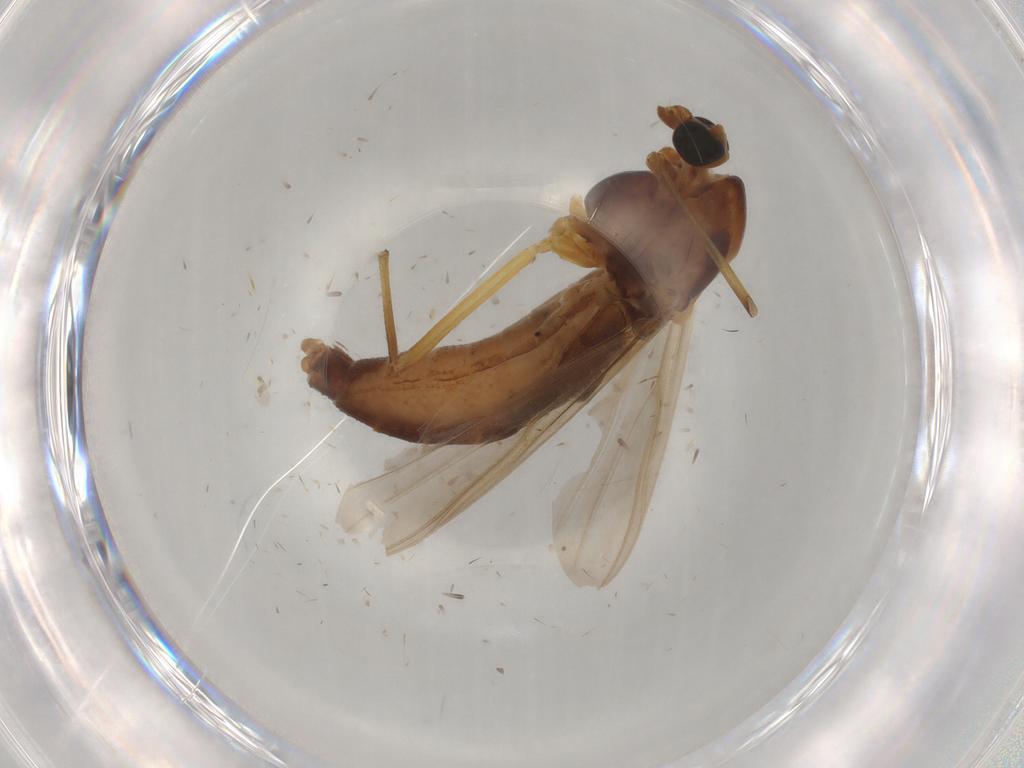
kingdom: Animalia
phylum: Arthropoda
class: Insecta
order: Diptera
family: Chironomidae
